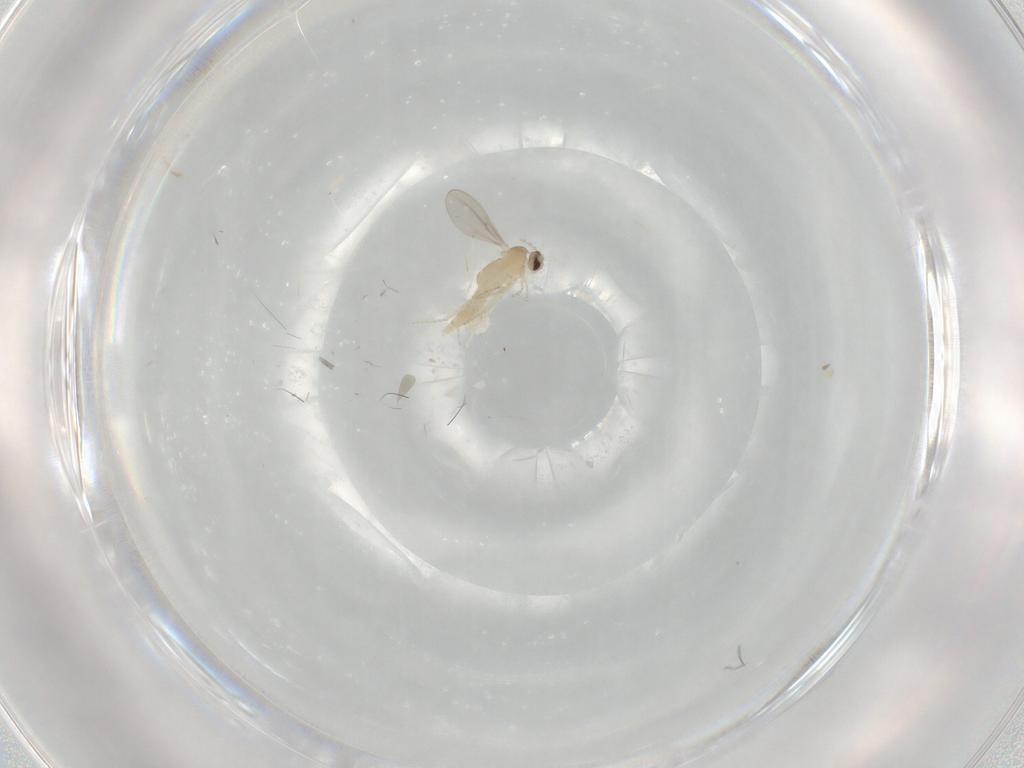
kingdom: Animalia
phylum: Arthropoda
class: Insecta
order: Diptera
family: Cecidomyiidae
